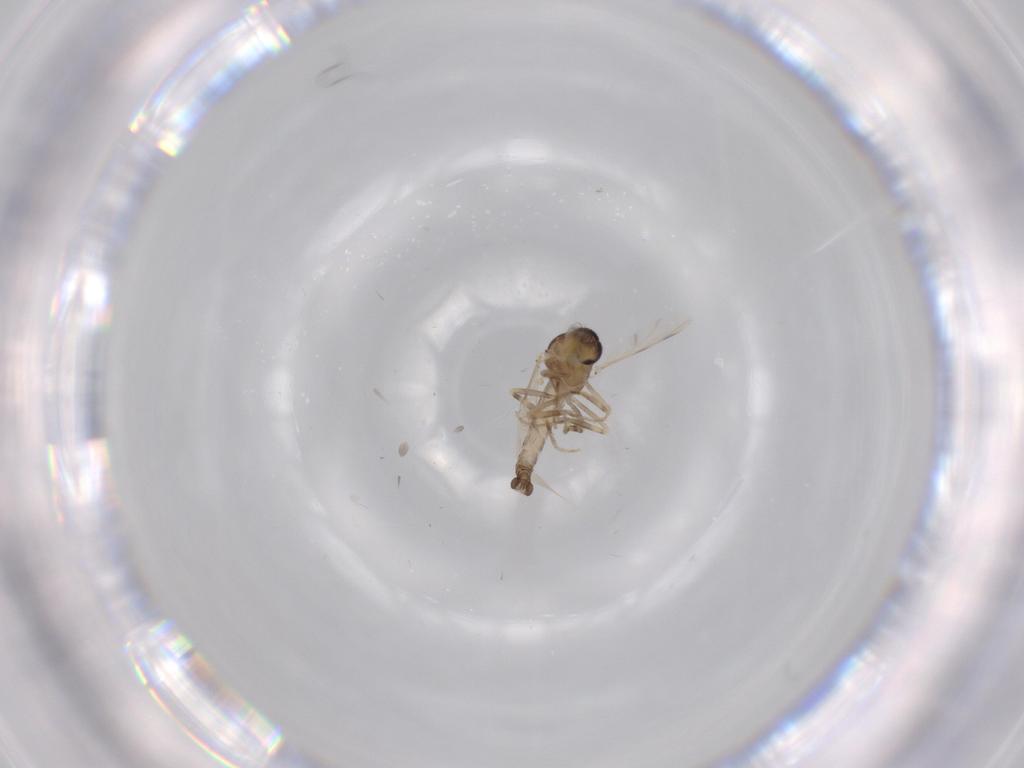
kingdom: Animalia
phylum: Arthropoda
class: Insecta
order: Diptera
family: Ceratopogonidae
